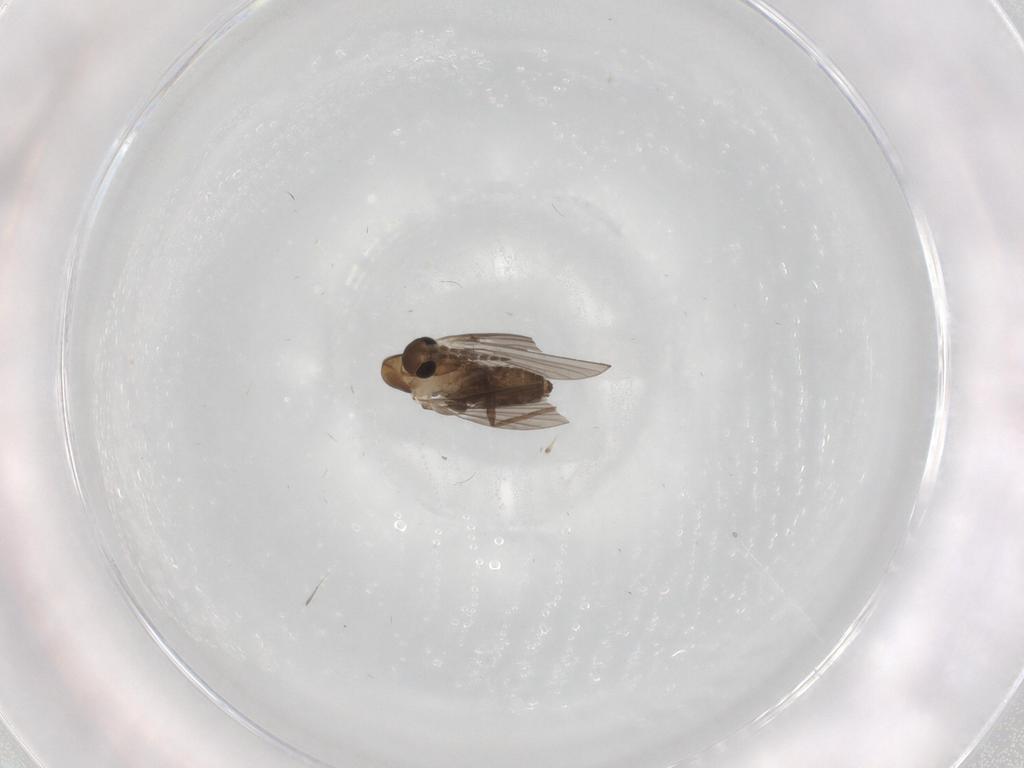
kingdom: Animalia
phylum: Arthropoda
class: Insecta
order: Diptera
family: Psychodidae
